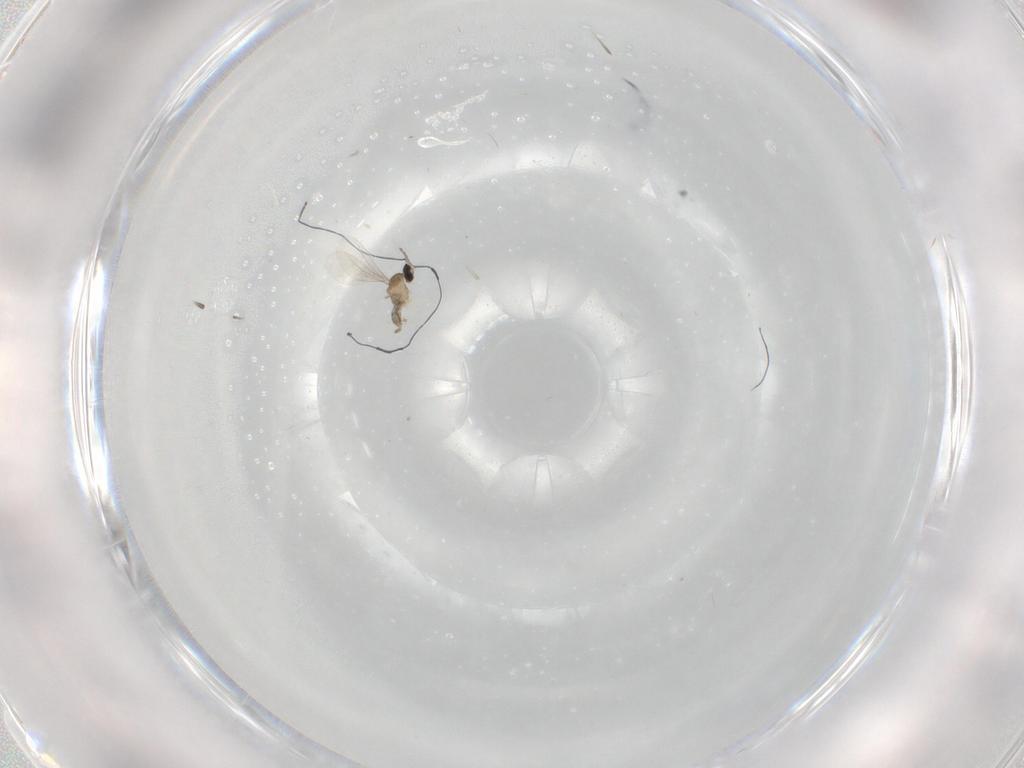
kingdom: Animalia
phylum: Arthropoda
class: Insecta
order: Diptera
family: Cecidomyiidae
